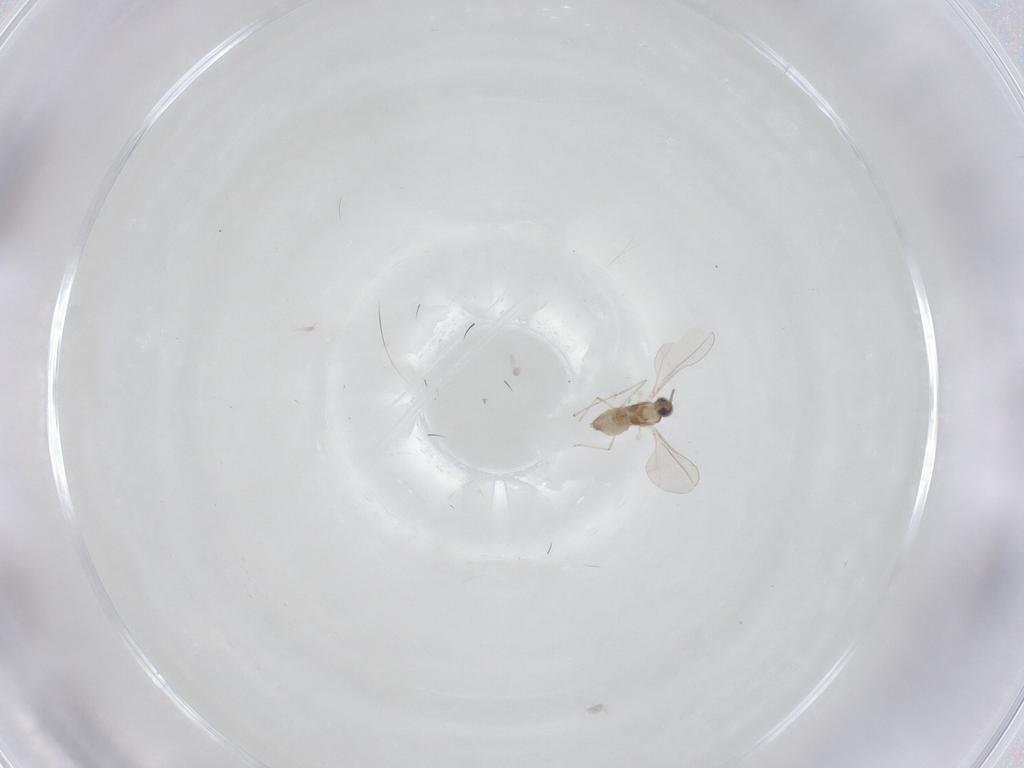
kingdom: Animalia
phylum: Arthropoda
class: Insecta
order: Diptera
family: Cecidomyiidae
